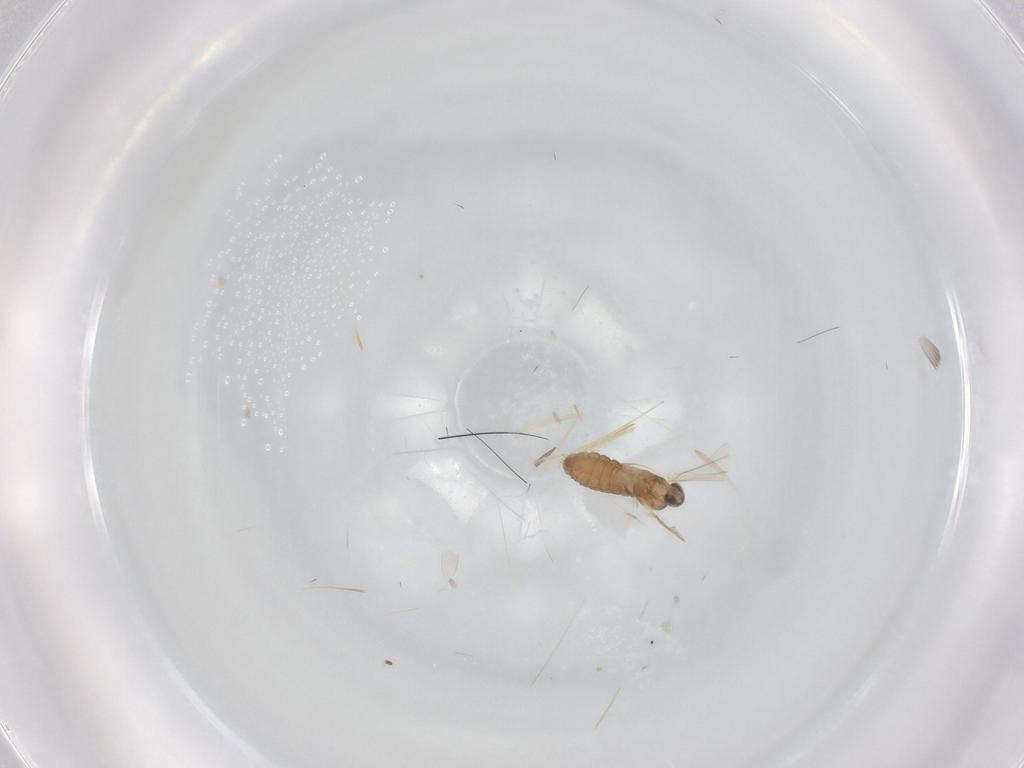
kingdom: Animalia
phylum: Arthropoda
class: Insecta
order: Diptera
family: Cecidomyiidae
